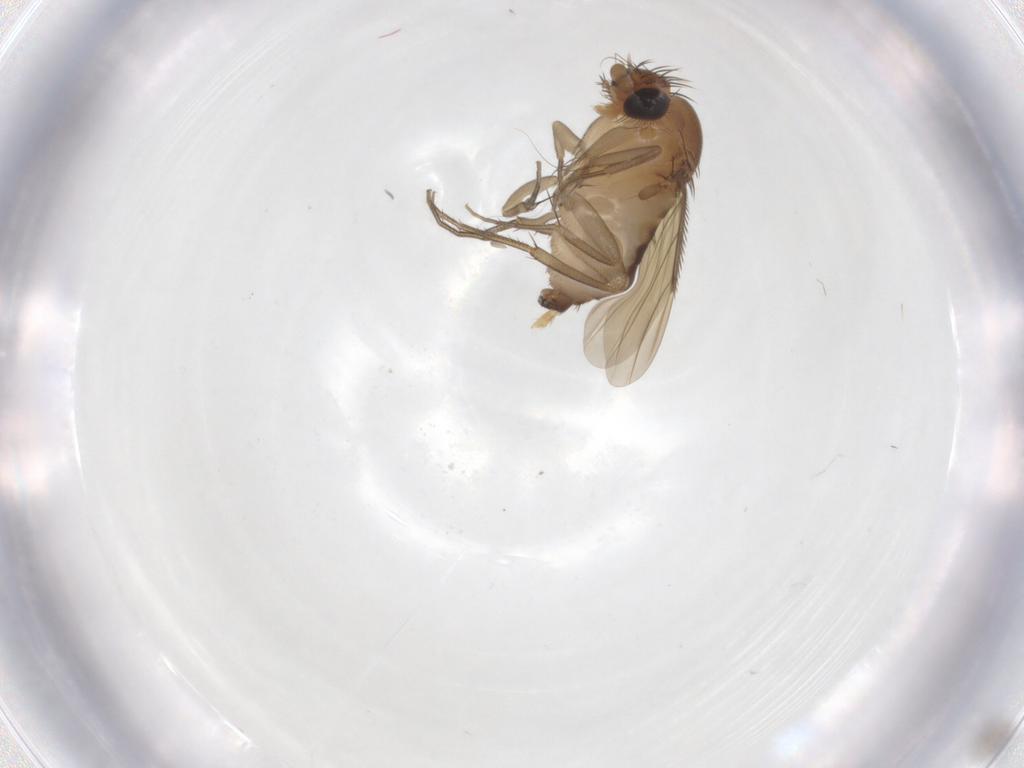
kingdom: Animalia
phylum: Arthropoda
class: Insecta
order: Diptera
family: Phoridae
